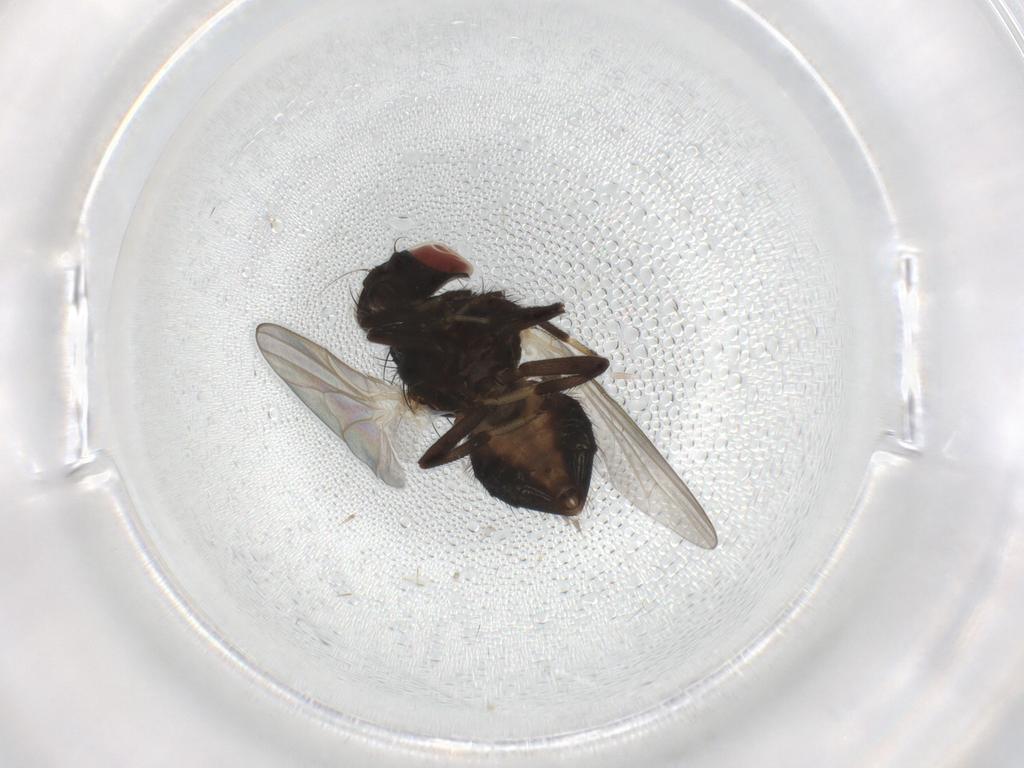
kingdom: Animalia
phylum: Arthropoda
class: Insecta
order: Diptera
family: Sciaridae
